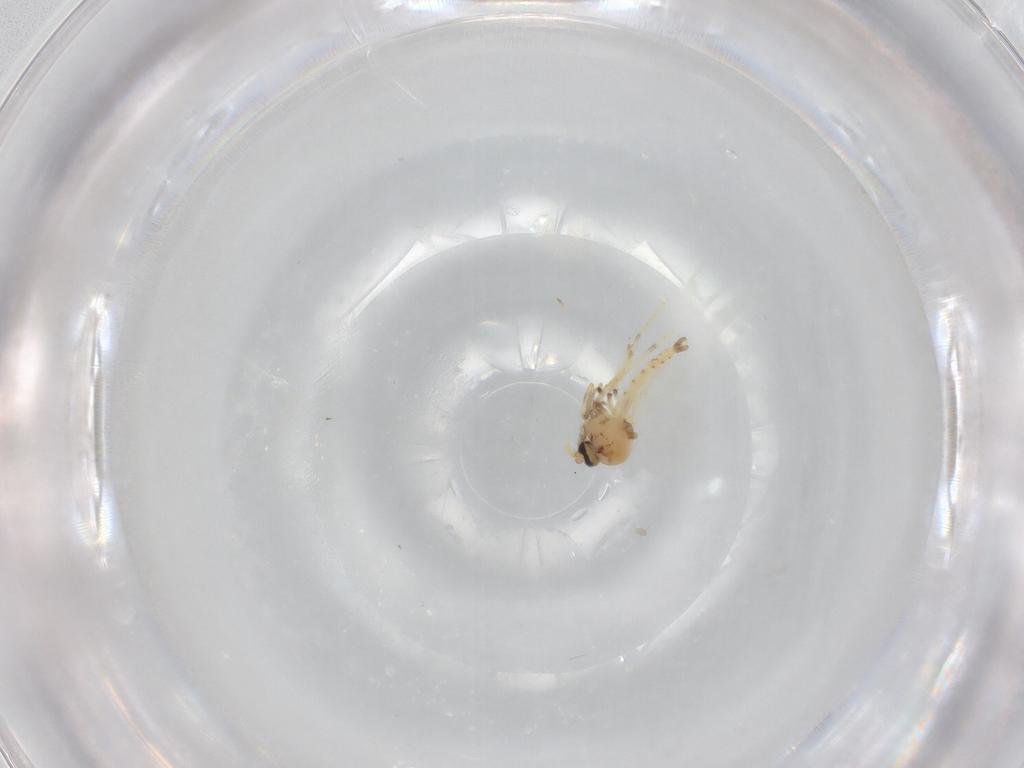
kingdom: Animalia
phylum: Arthropoda
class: Insecta
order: Diptera
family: Ceratopogonidae
